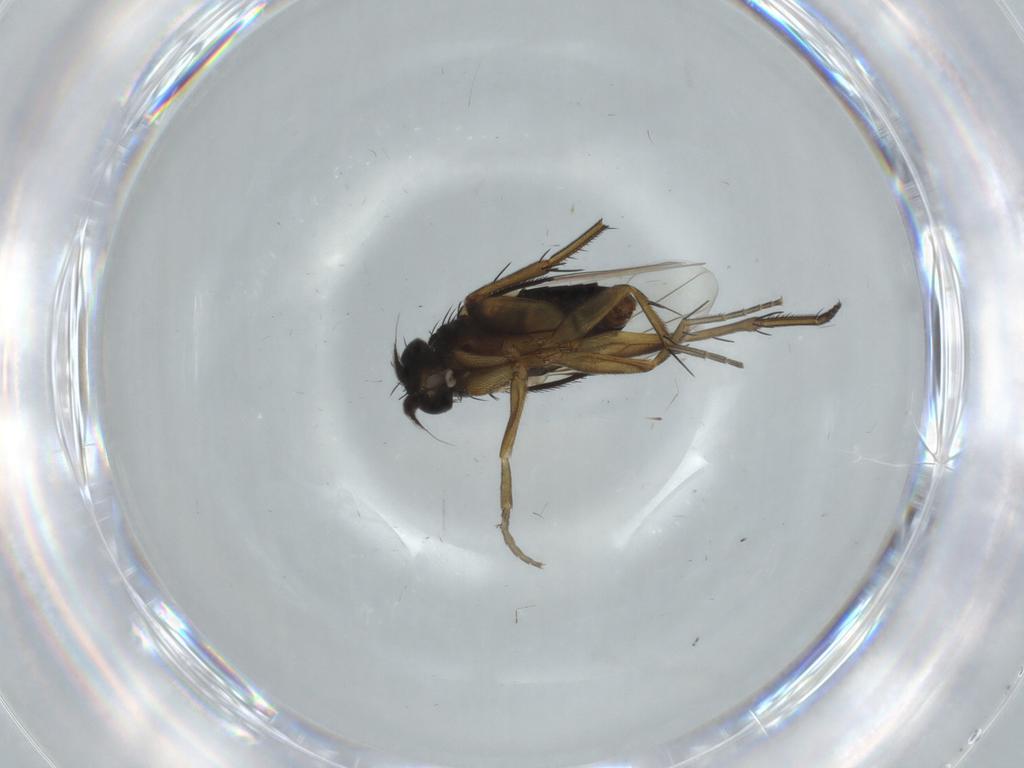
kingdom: Animalia
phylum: Arthropoda
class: Insecta
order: Diptera
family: Phoridae
